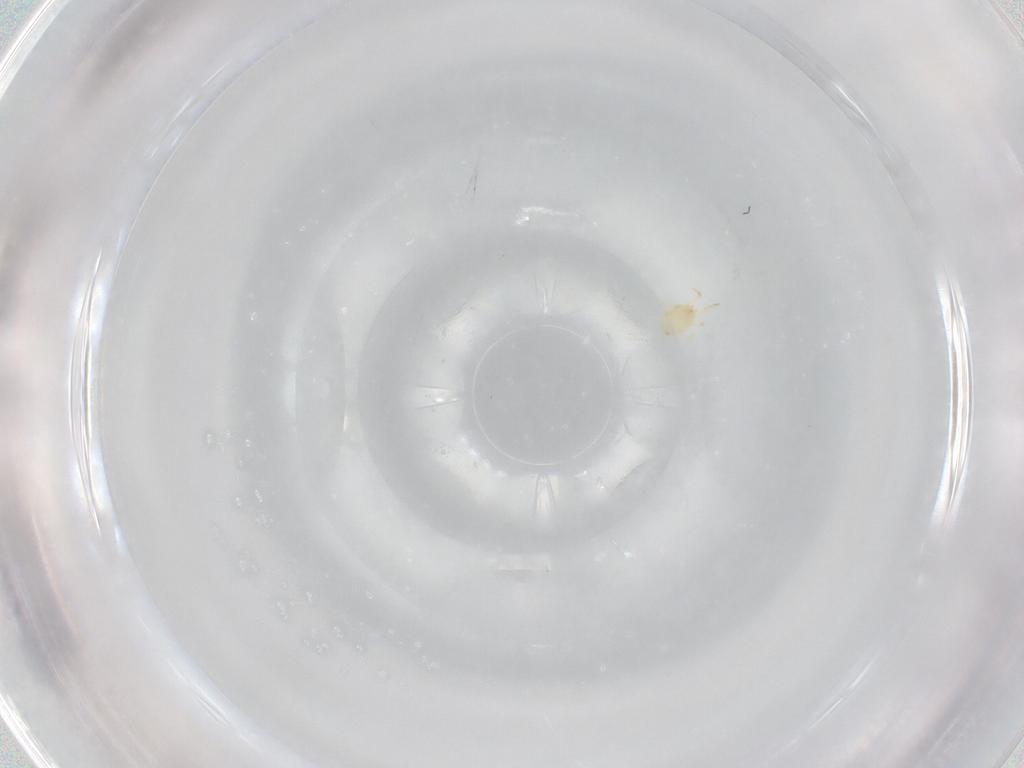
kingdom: Animalia
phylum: Arthropoda
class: Arachnida
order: Mesostigmata
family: Phytoseiidae
